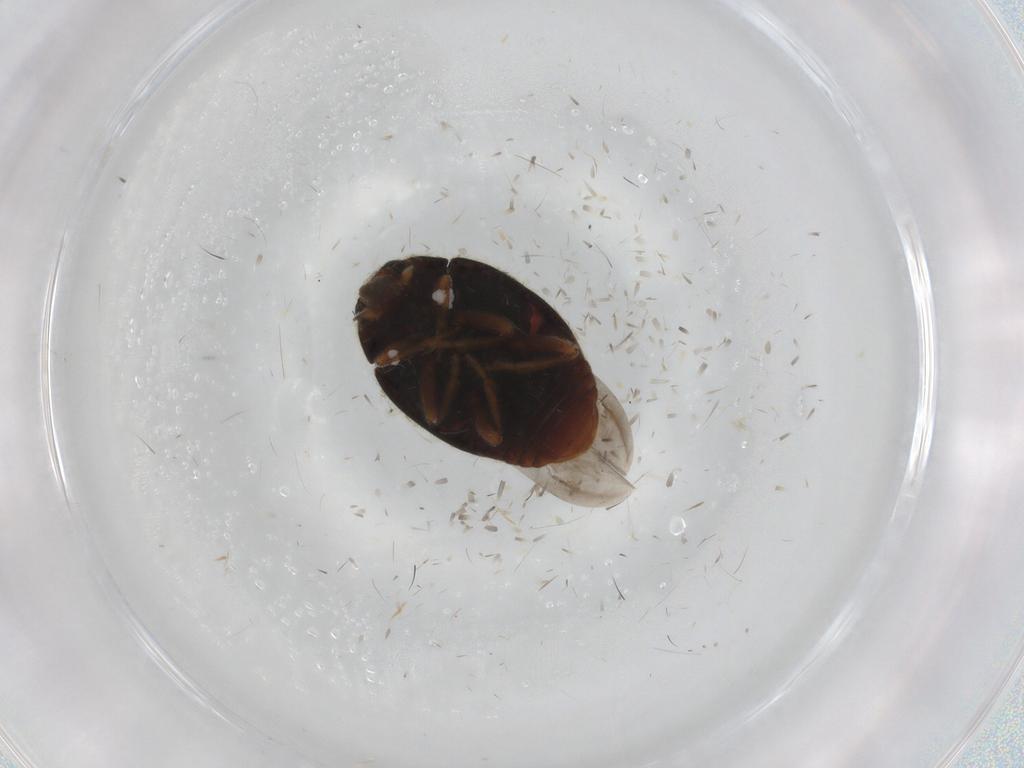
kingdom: Animalia
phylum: Arthropoda
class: Insecta
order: Coleoptera
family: Coccinellidae
